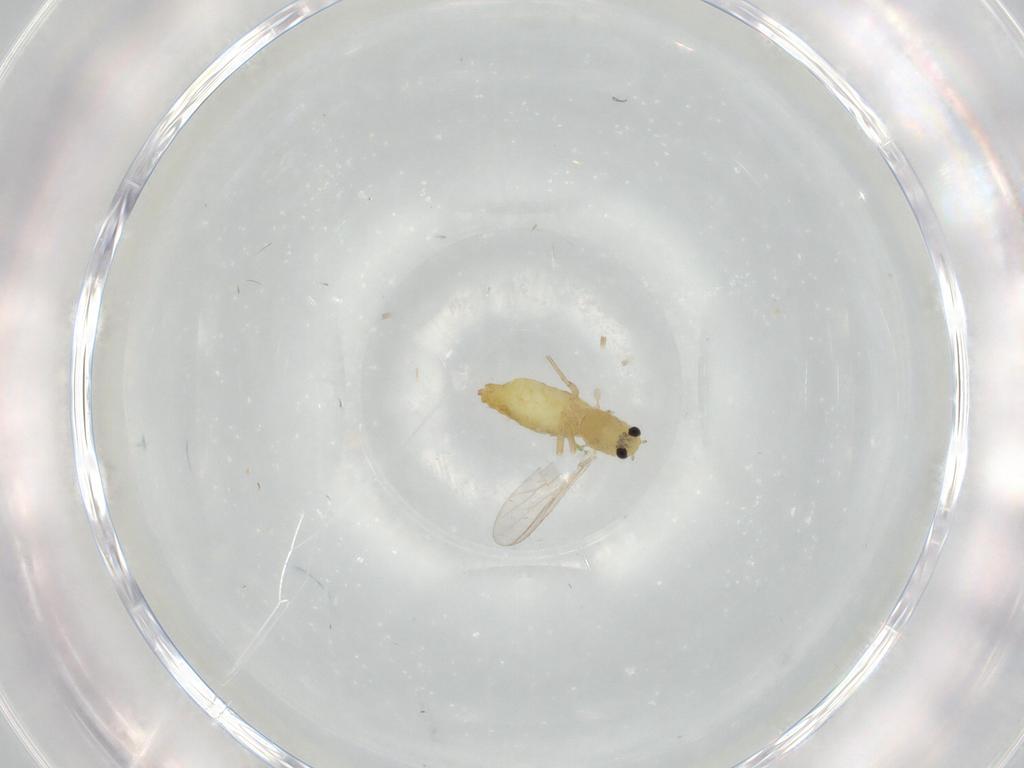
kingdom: Animalia
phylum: Arthropoda
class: Insecta
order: Diptera
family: Chironomidae
